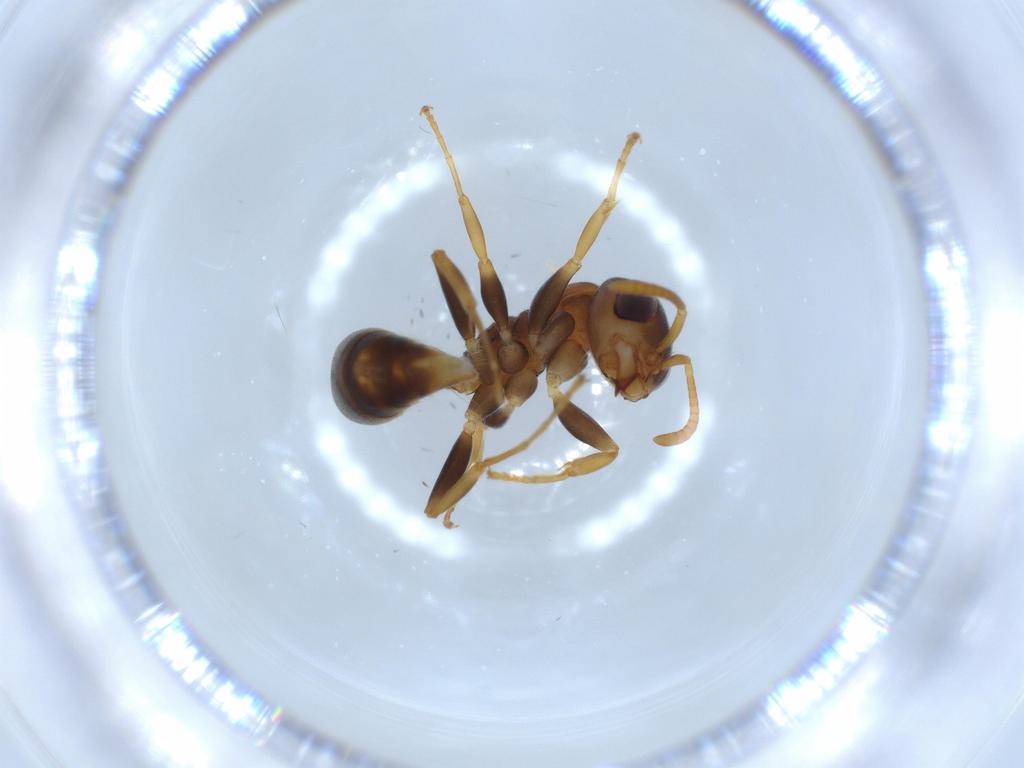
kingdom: Animalia
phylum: Arthropoda
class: Insecta
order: Hymenoptera
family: Formicidae
